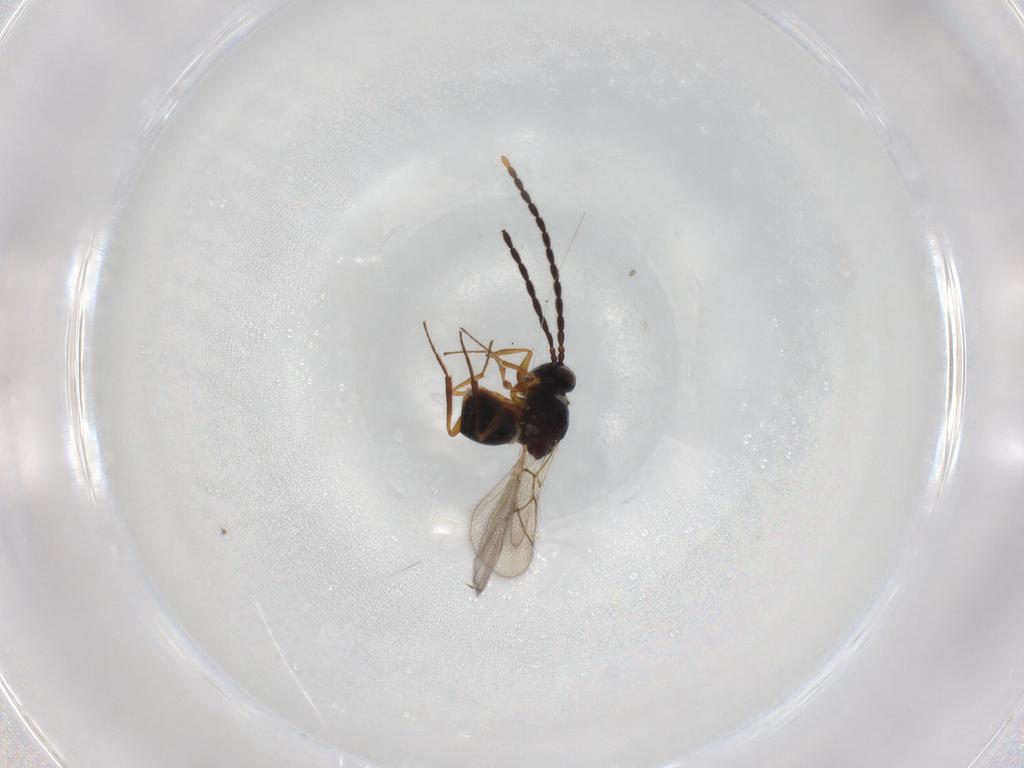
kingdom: Animalia
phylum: Arthropoda
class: Insecta
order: Hymenoptera
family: Figitidae
